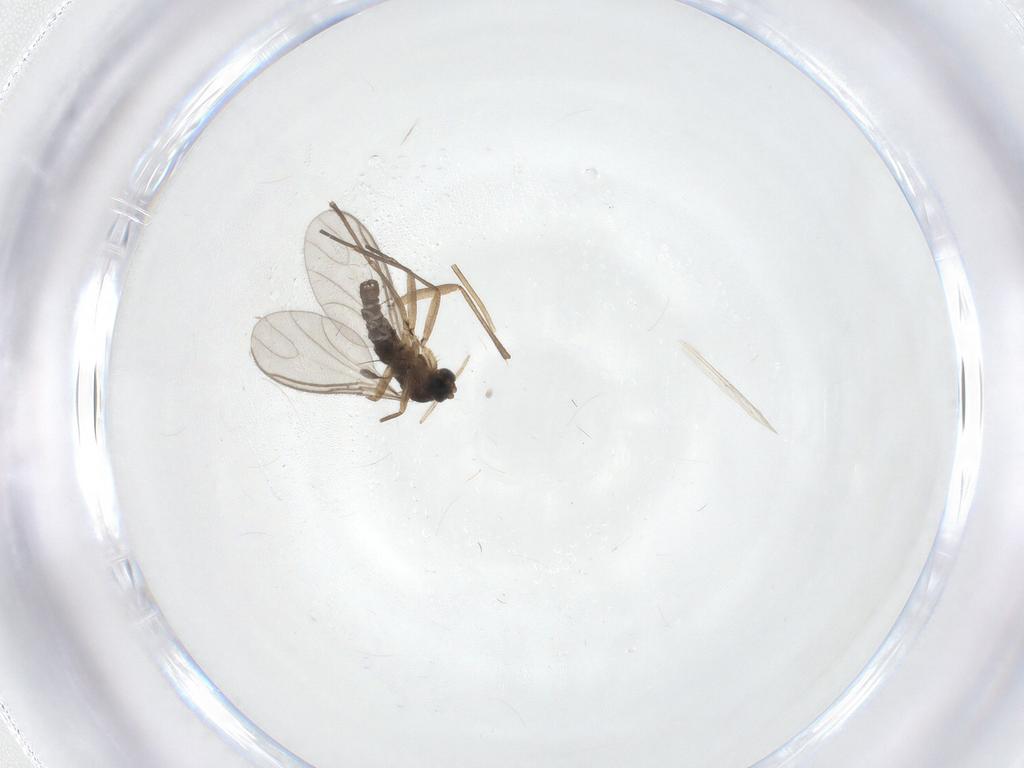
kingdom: Animalia
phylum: Arthropoda
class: Insecta
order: Diptera
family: Sciaridae
